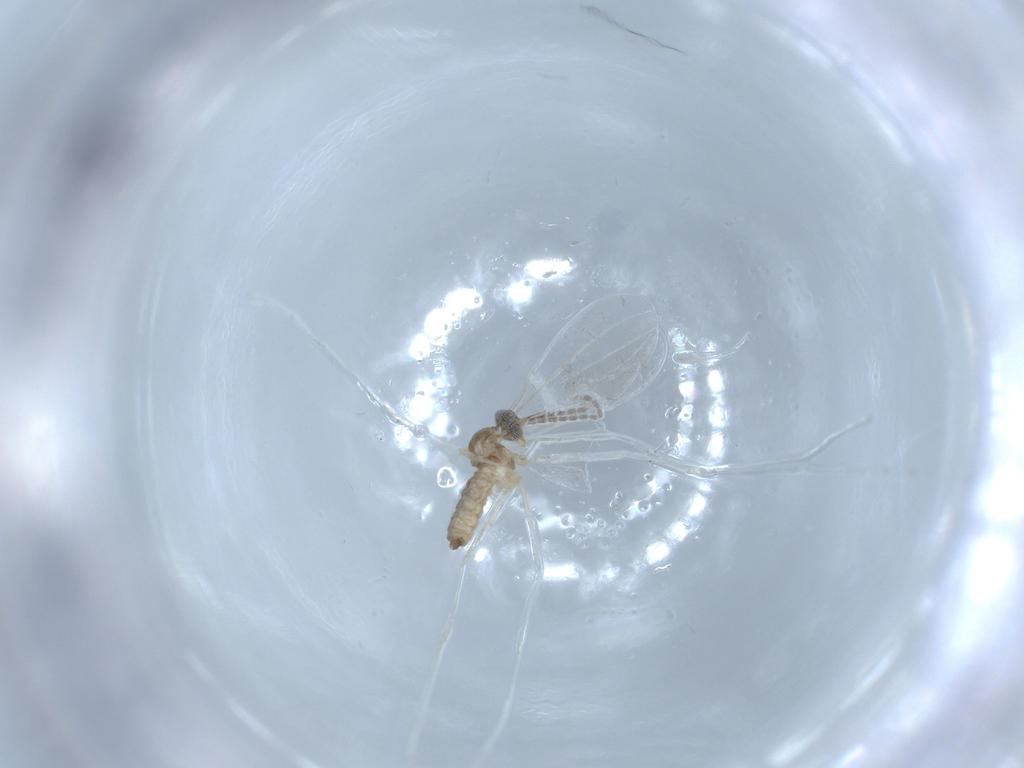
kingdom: Animalia
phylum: Arthropoda
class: Insecta
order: Diptera
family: Cecidomyiidae
